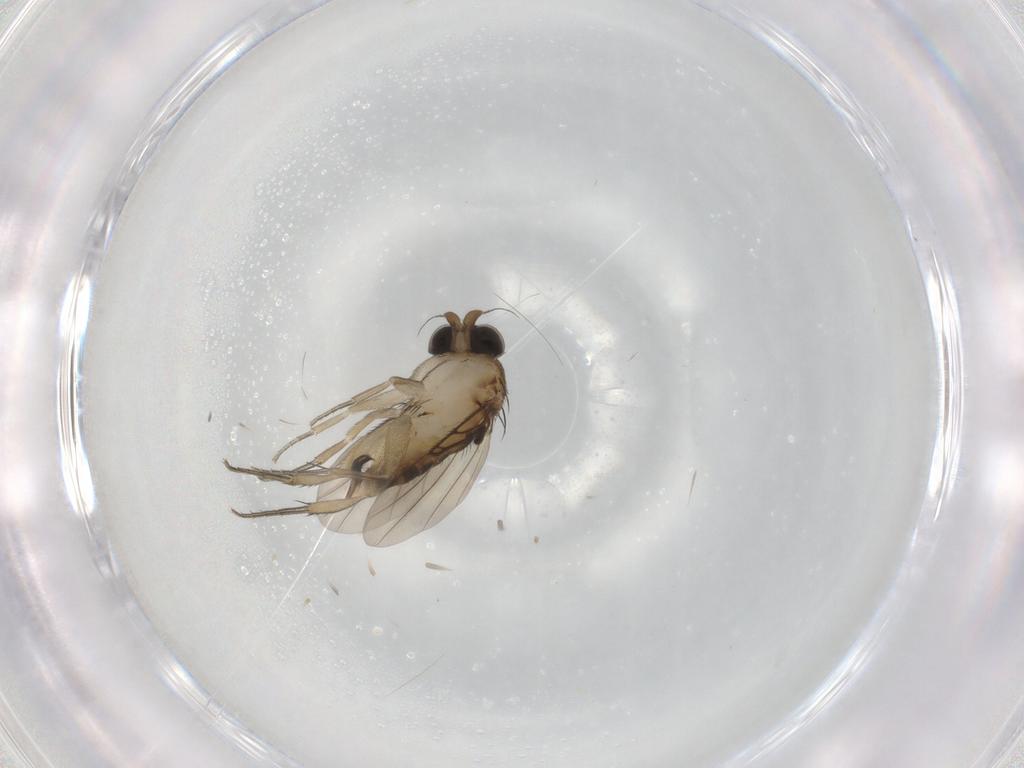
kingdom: Animalia
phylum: Arthropoda
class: Insecta
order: Diptera
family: Phoridae
